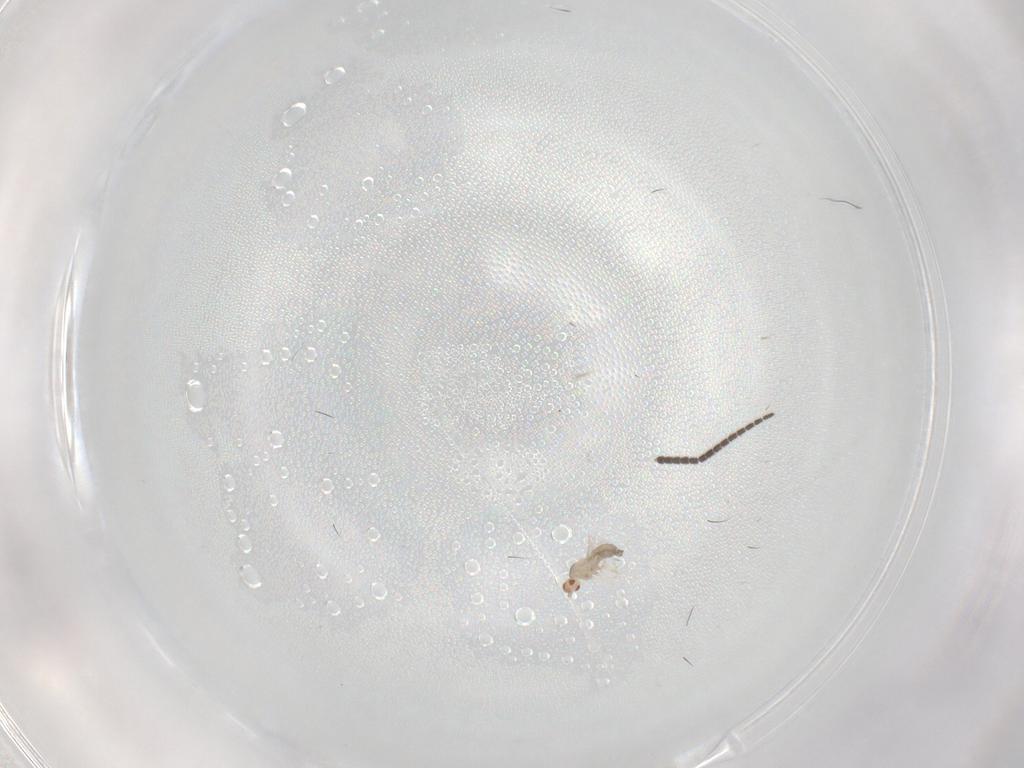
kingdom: Animalia
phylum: Arthropoda
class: Insecta
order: Diptera
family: Cecidomyiidae
